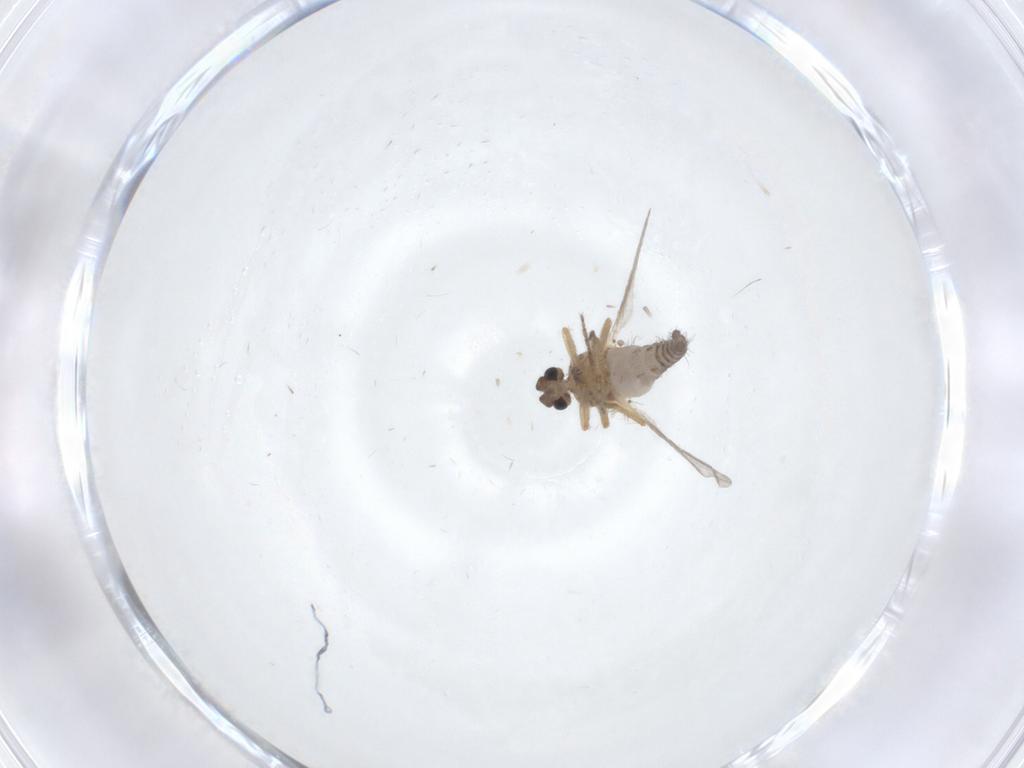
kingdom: Animalia
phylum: Arthropoda
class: Insecta
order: Diptera
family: Ceratopogonidae
